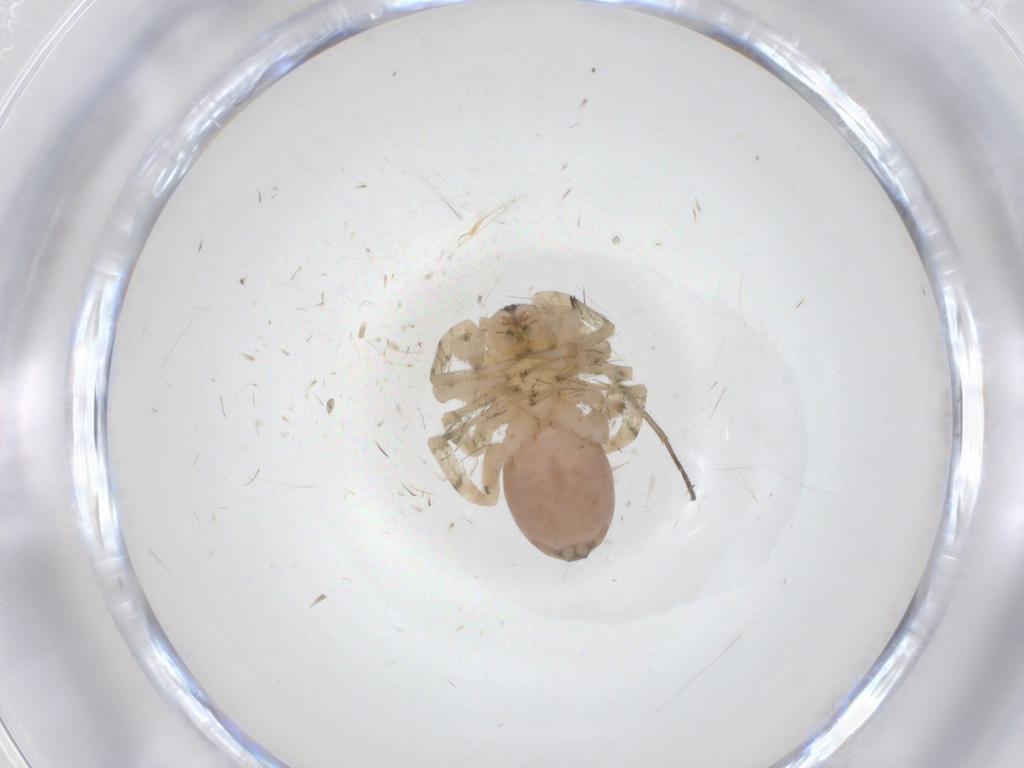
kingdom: Animalia
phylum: Arthropoda
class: Arachnida
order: Araneae
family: Anyphaenidae
